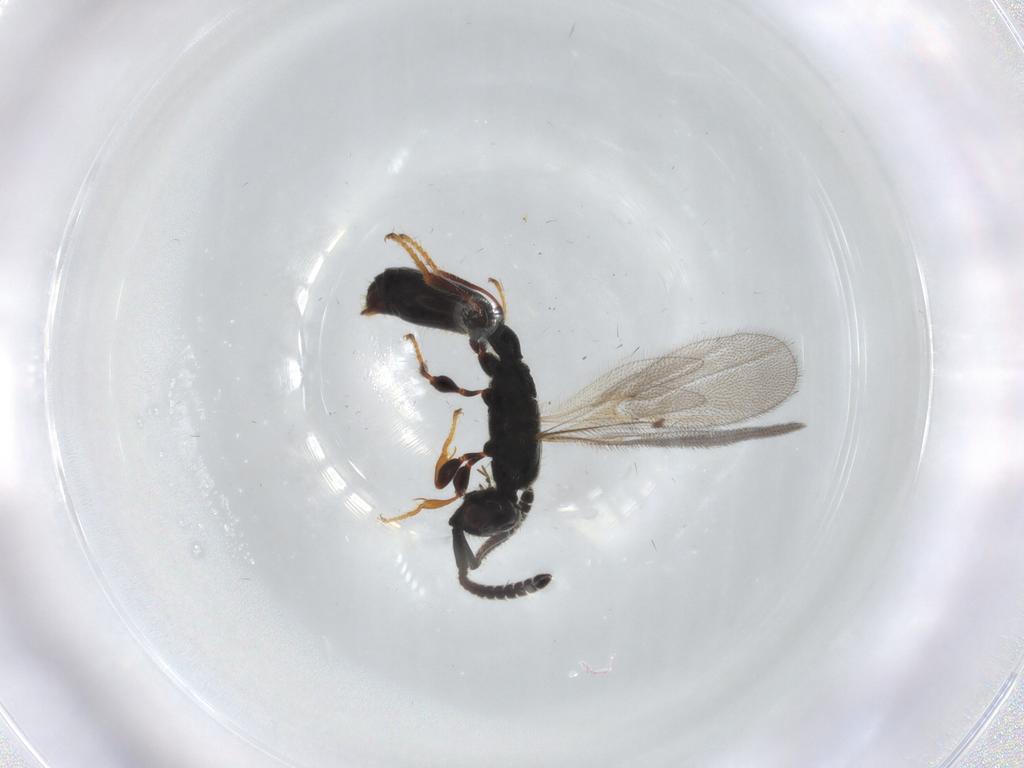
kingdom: Animalia
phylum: Arthropoda
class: Insecta
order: Hymenoptera
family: Diapriidae
